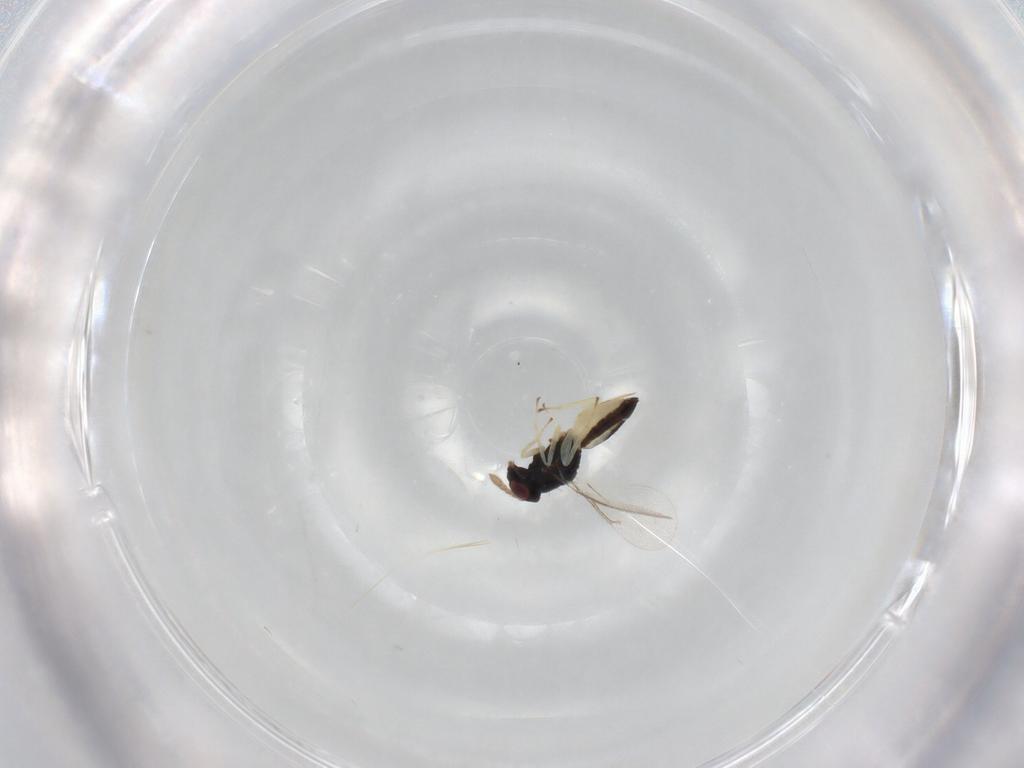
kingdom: Animalia
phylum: Arthropoda
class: Insecta
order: Hymenoptera
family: Eulophidae
